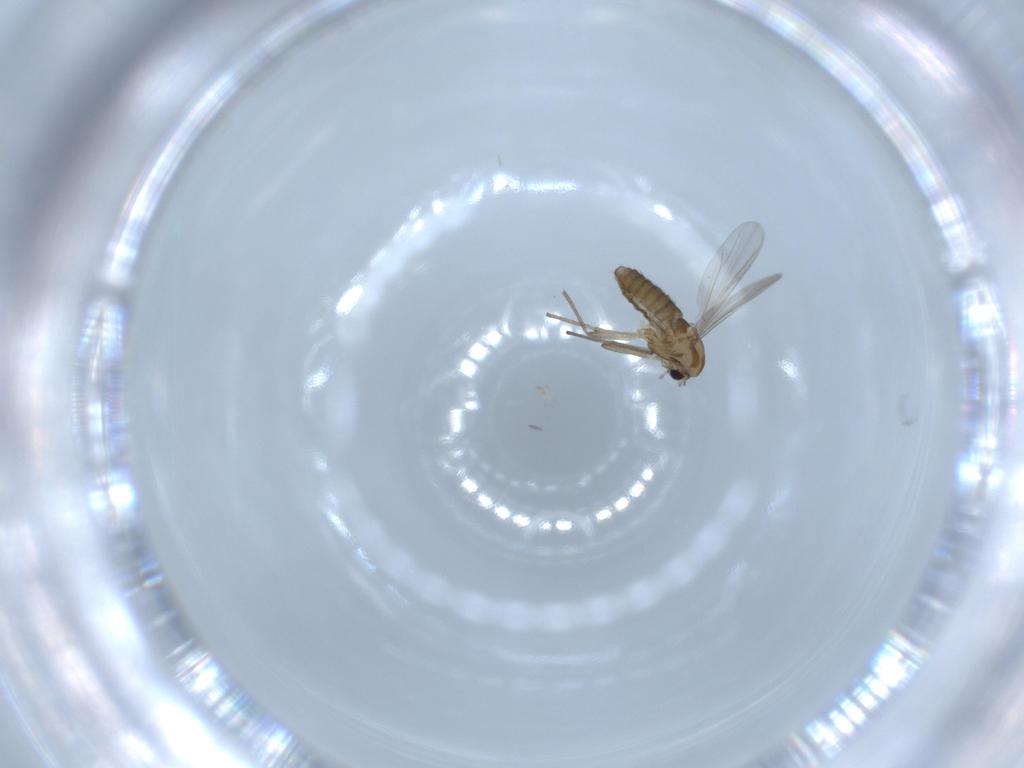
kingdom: Animalia
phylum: Arthropoda
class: Insecta
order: Diptera
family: Chironomidae
